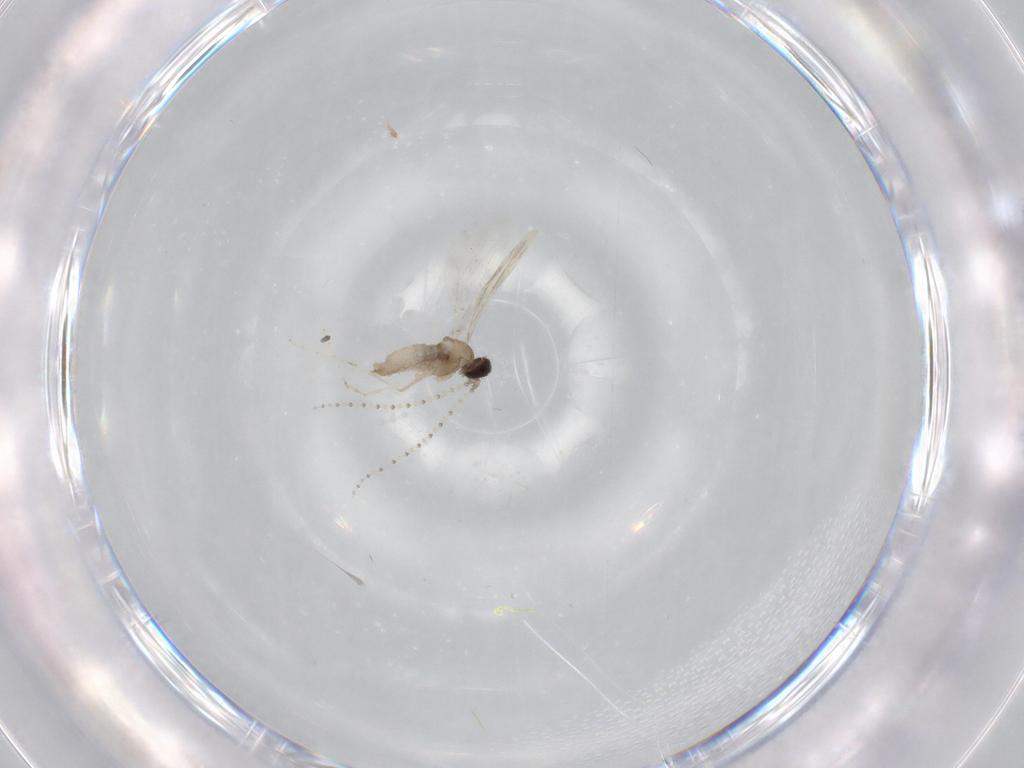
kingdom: Animalia
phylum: Arthropoda
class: Insecta
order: Diptera
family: Cecidomyiidae
